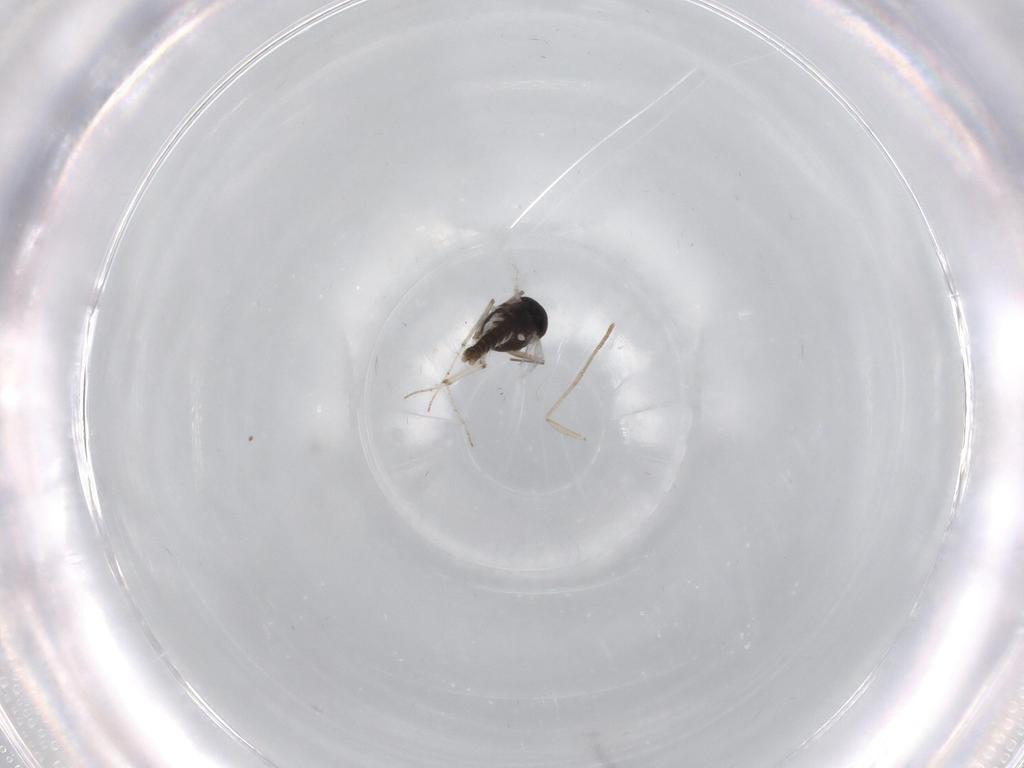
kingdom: Animalia
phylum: Arthropoda
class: Insecta
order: Diptera
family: Chironomidae
